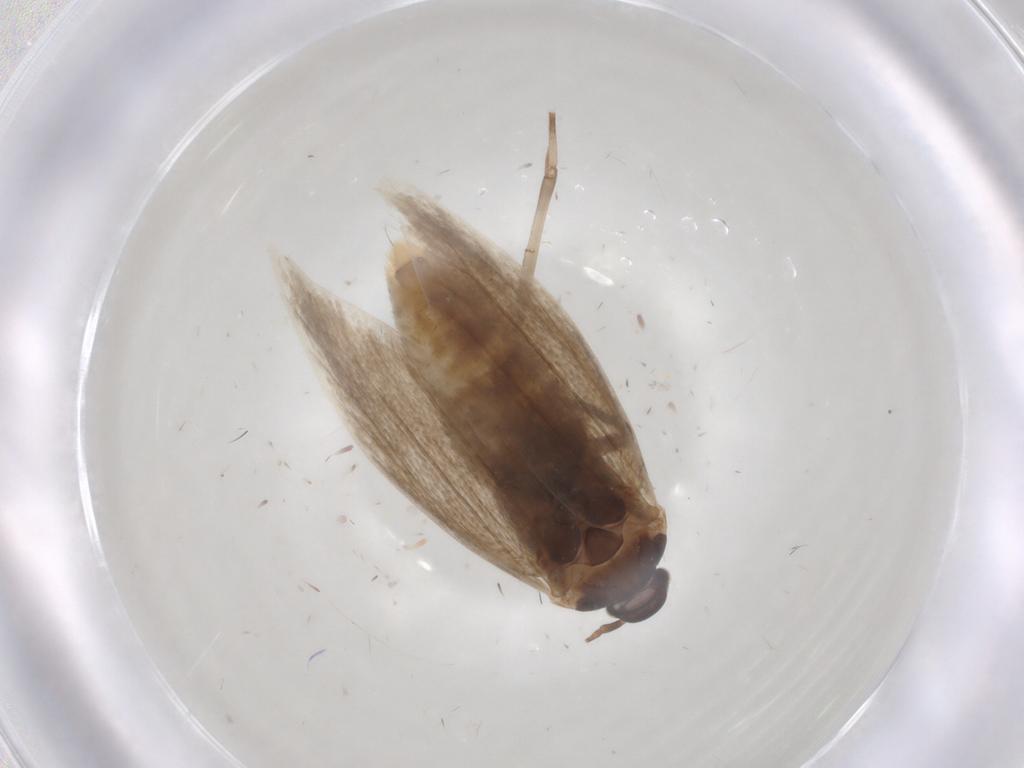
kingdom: Animalia
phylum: Arthropoda
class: Insecta
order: Lepidoptera
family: Elachistidae
